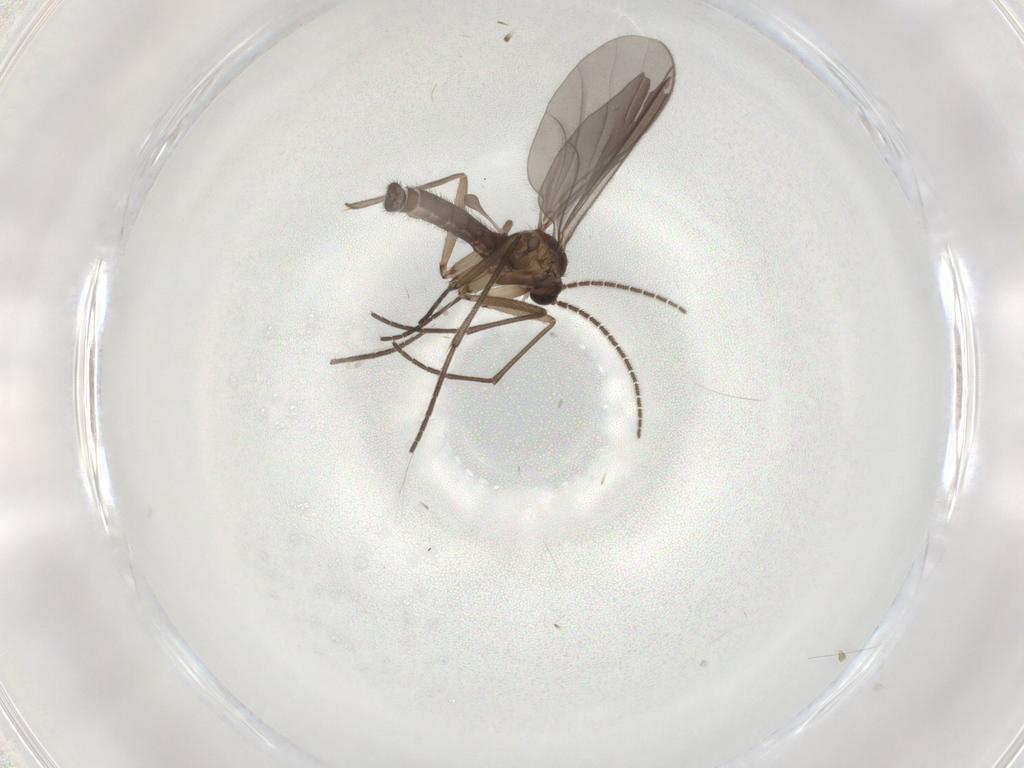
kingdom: Animalia
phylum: Arthropoda
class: Insecta
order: Diptera
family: Sciaridae
